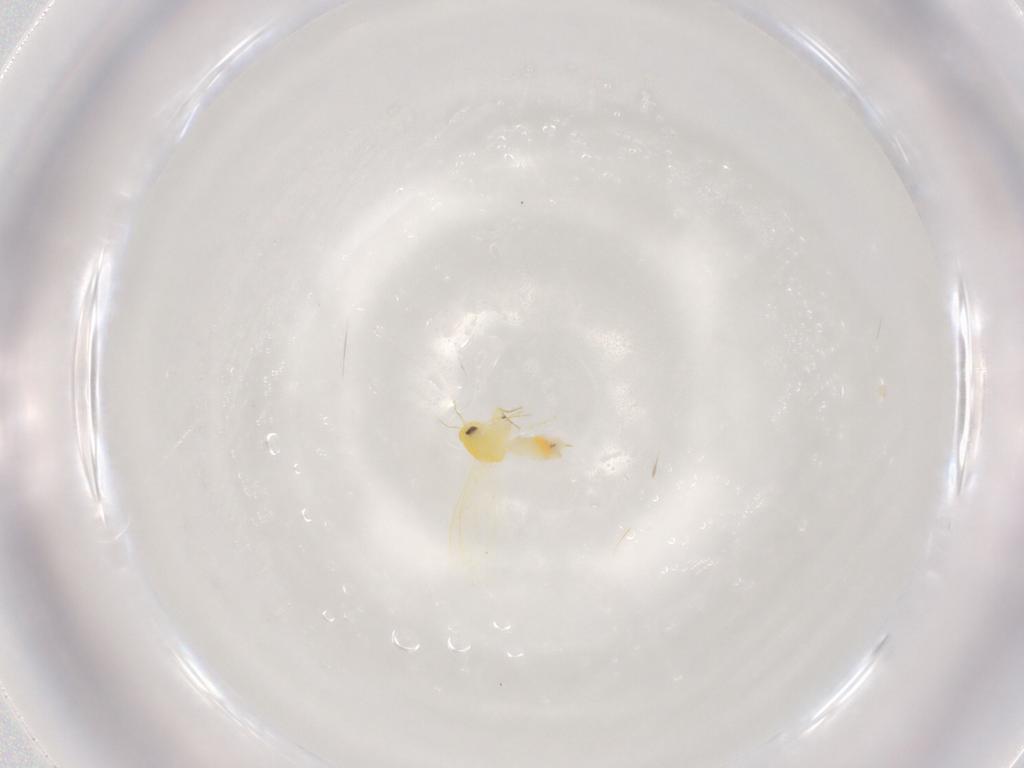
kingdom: Animalia
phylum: Arthropoda
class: Insecta
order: Hemiptera
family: Aleyrodidae
